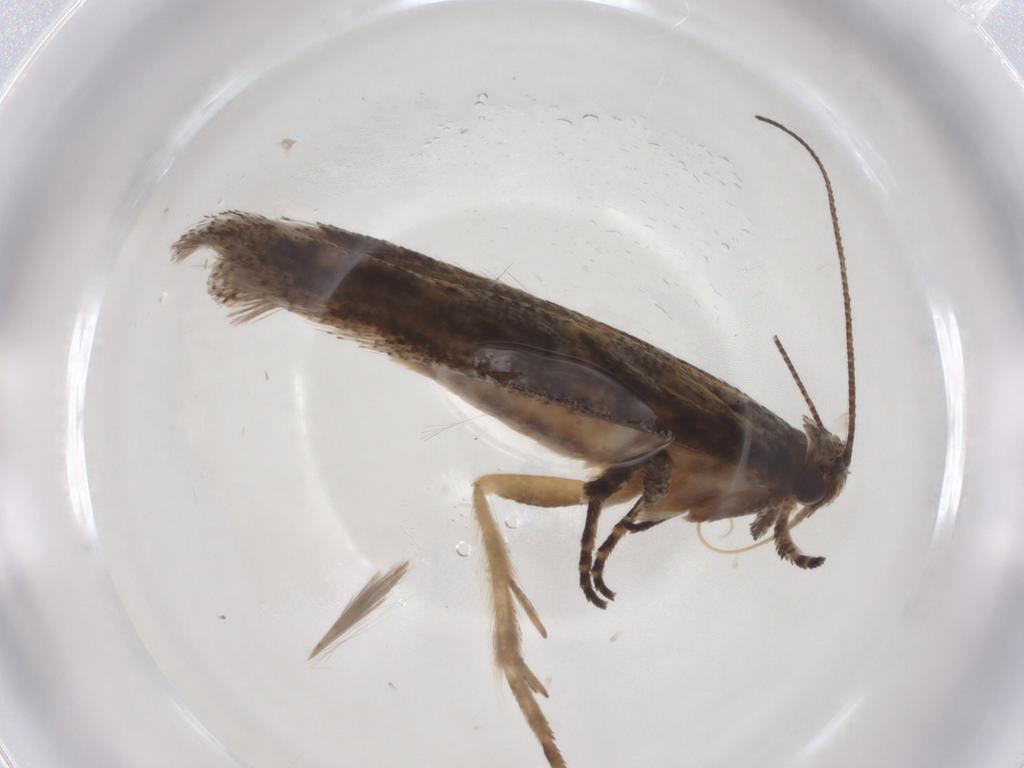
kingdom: Animalia
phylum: Arthropoda
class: Insecta
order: Lepidoptera
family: Gelechiidae
